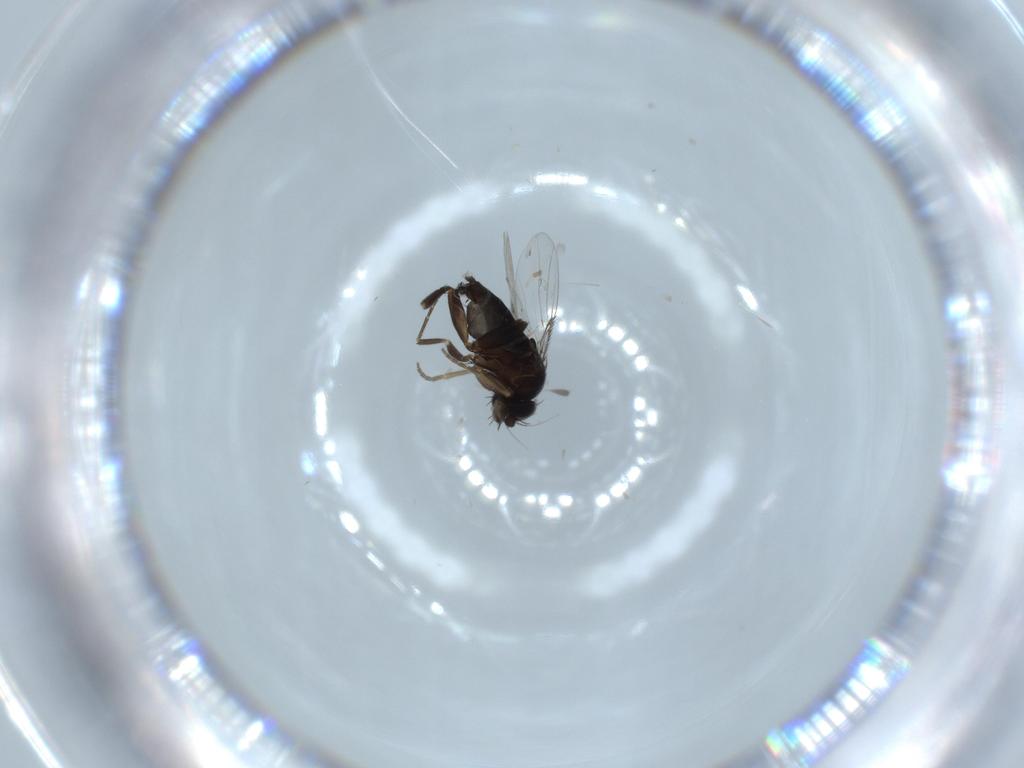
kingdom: Animalia
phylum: Arthropoda
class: Insecta
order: Diptera
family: Phoridae
